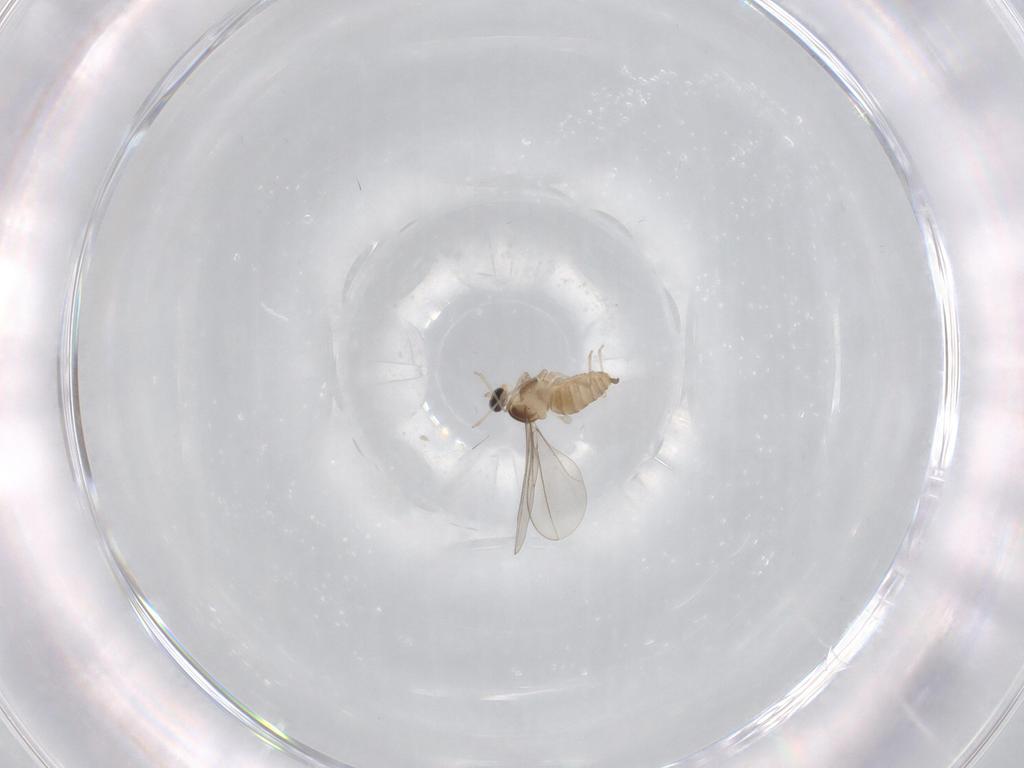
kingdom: Animalia
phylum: Arthropoda
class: Insecta
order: Diptera
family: Cecidomyiidae
